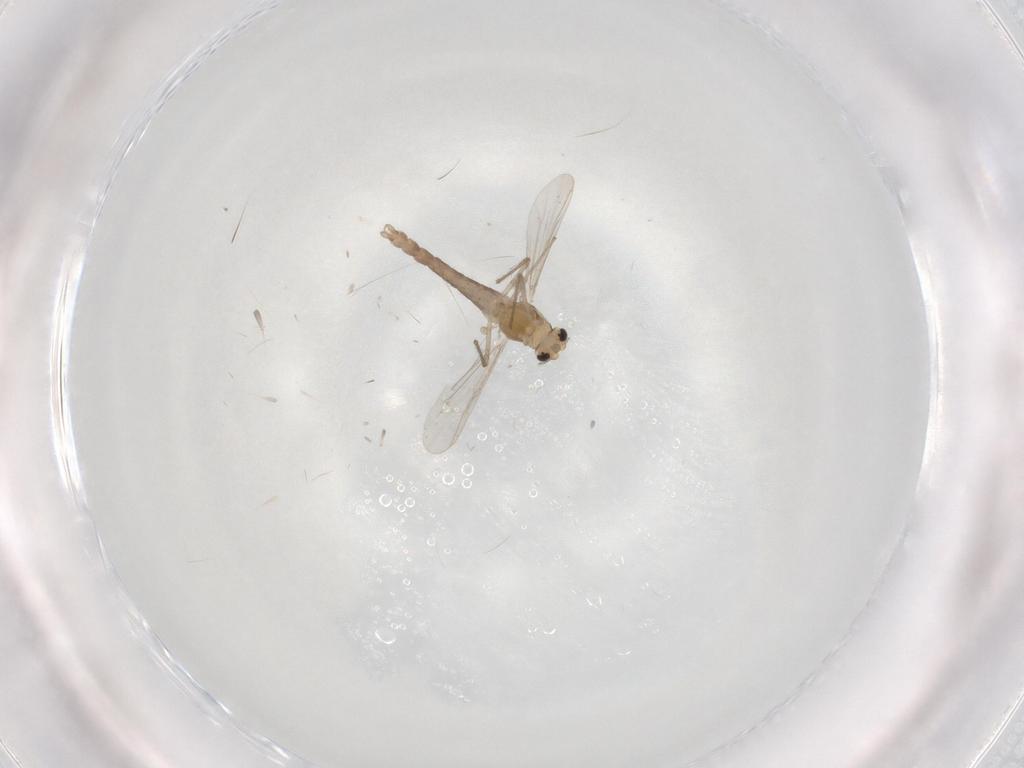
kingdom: Animalia
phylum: Arthropoda
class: Insecta
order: Diptera
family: Chironomidae
